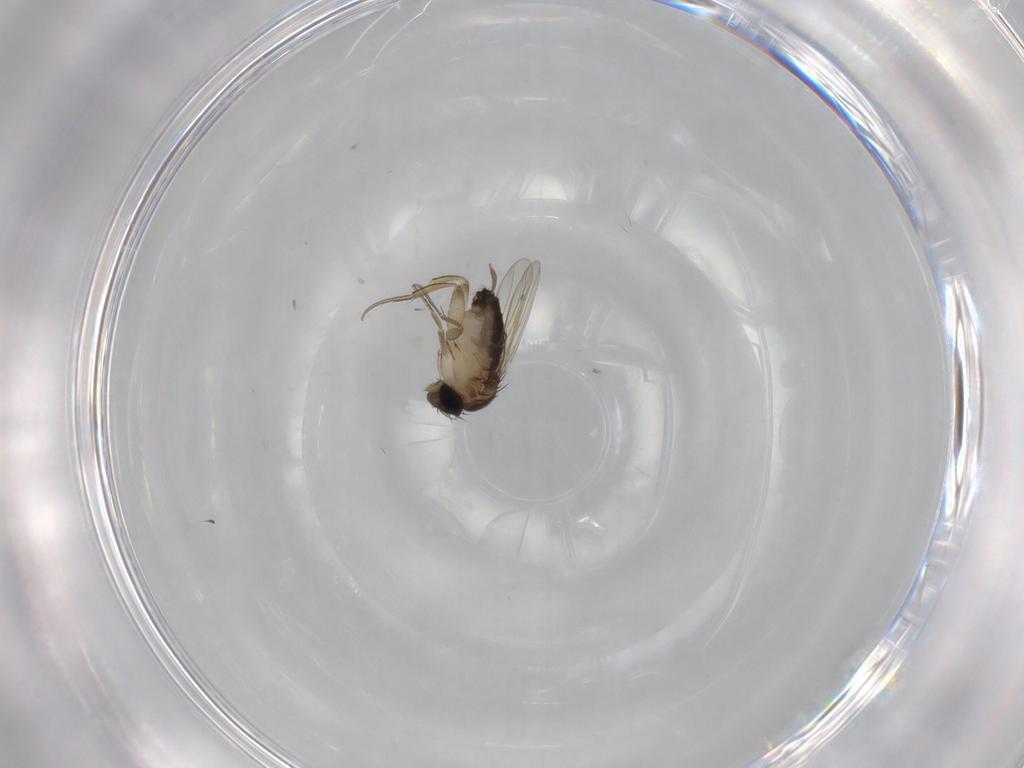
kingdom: Animalia
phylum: Arthropoda
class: Insecta
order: Diptera
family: Phoridae
